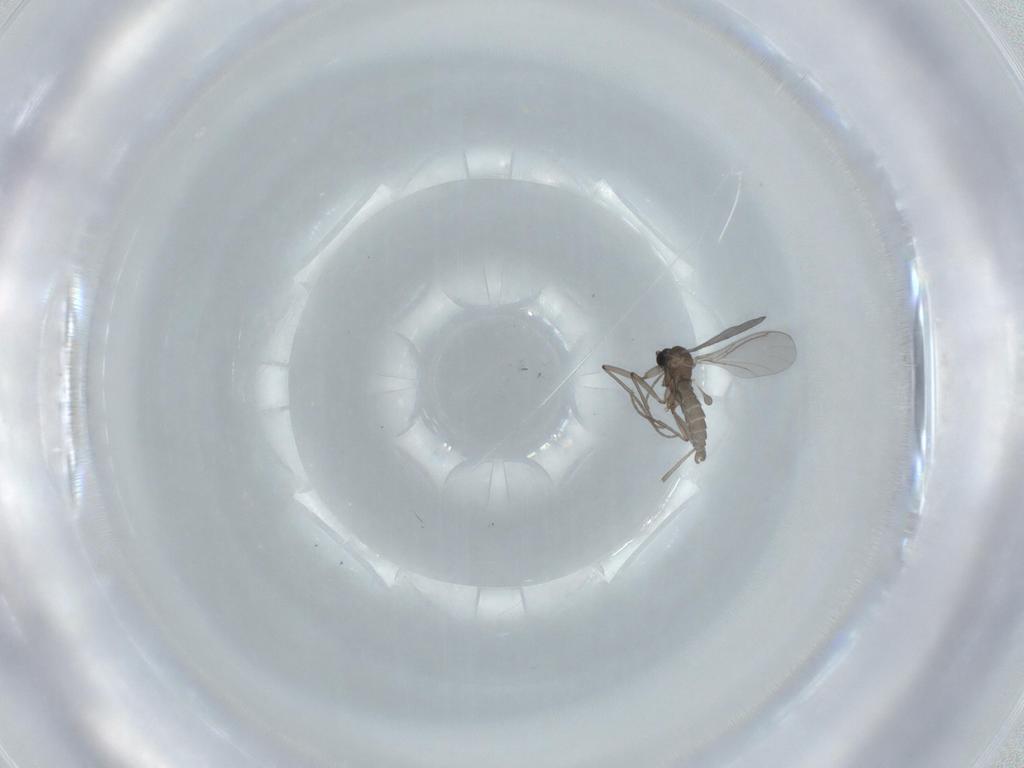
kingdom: Animalia
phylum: Arthropoda
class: Insecta
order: Diptera
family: Sciaridae
